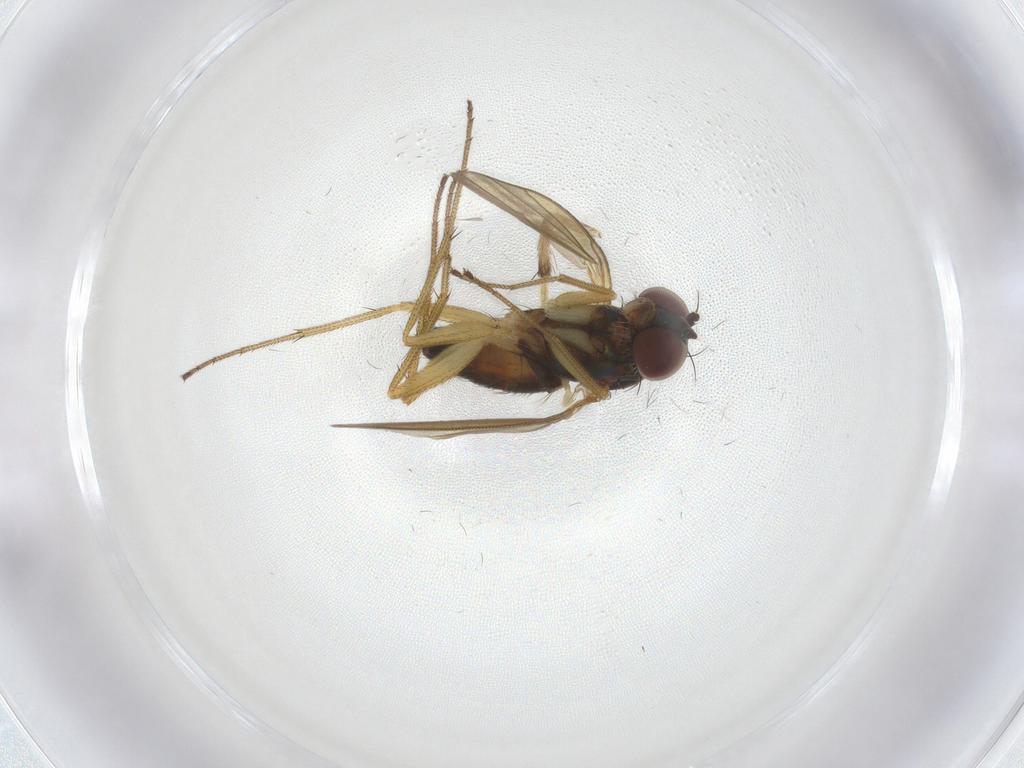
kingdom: Animalia
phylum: Arthropoda
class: Insecta
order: Diptera
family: Dolichopodidae
